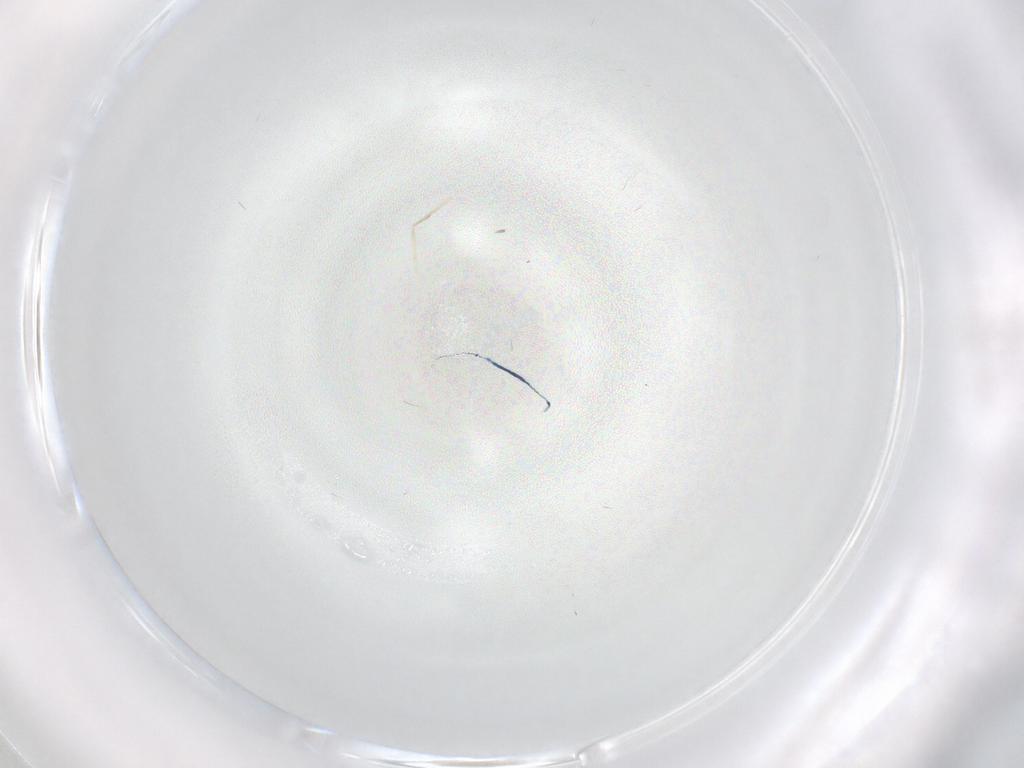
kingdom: Animalia
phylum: Arthropoda
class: Insecta
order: Diptera
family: Cecidomyiidae
